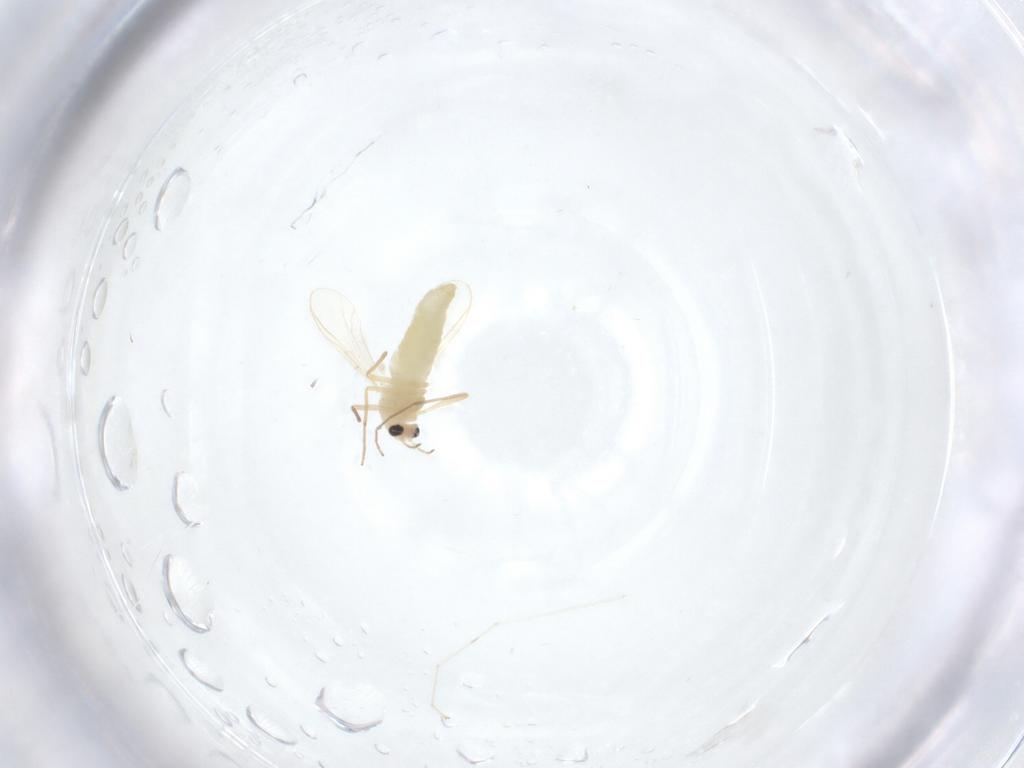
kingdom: Animalia
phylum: Arthropoda
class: Insecta
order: Diptera
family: Chironomidae
